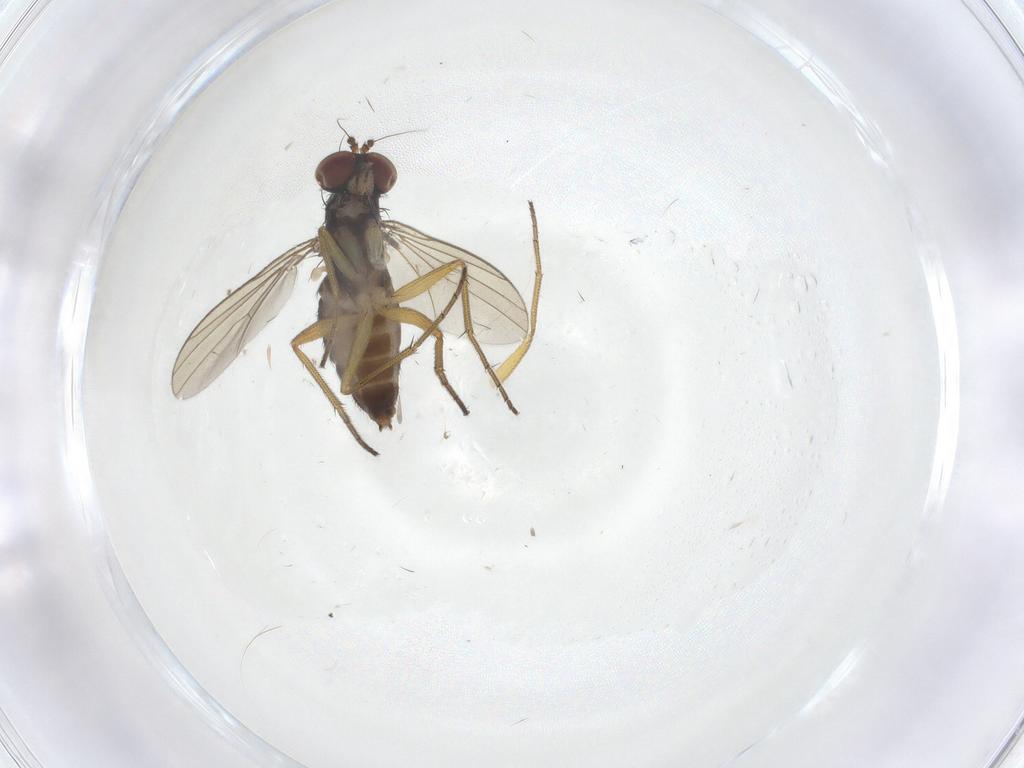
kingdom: Animalia
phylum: Arthropoda
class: Insecta
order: Diptera
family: Dolichopodidae
